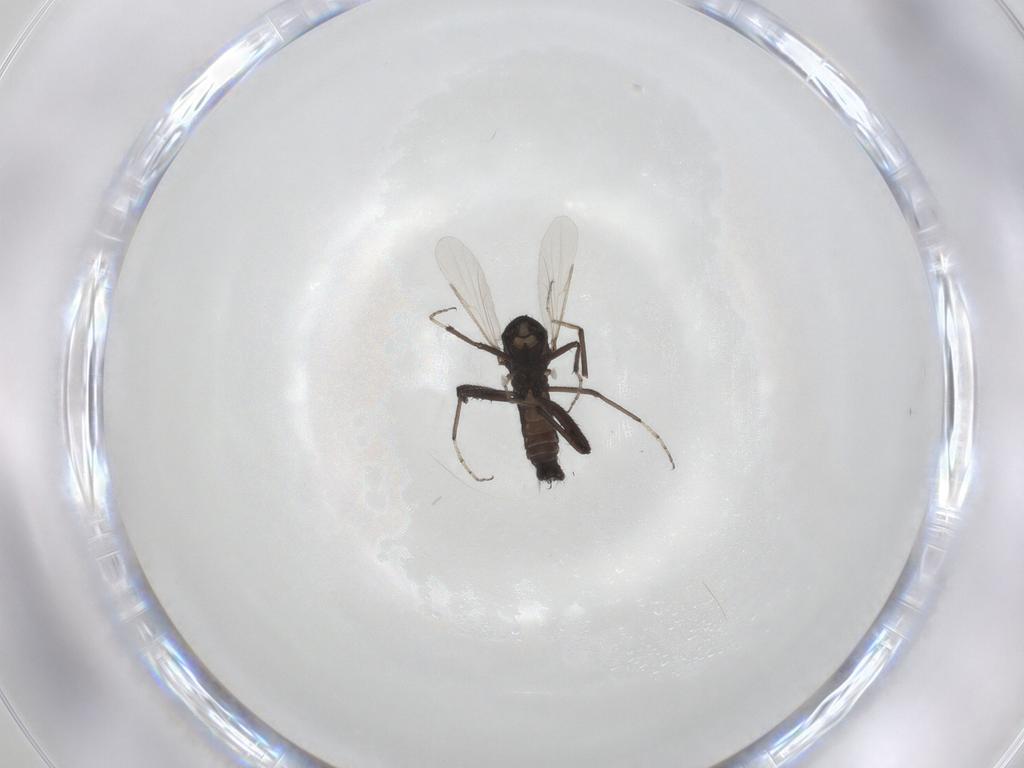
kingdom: Animalia
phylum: Arthropoda
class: Insecta
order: Diptera
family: Ceratopogonidae
